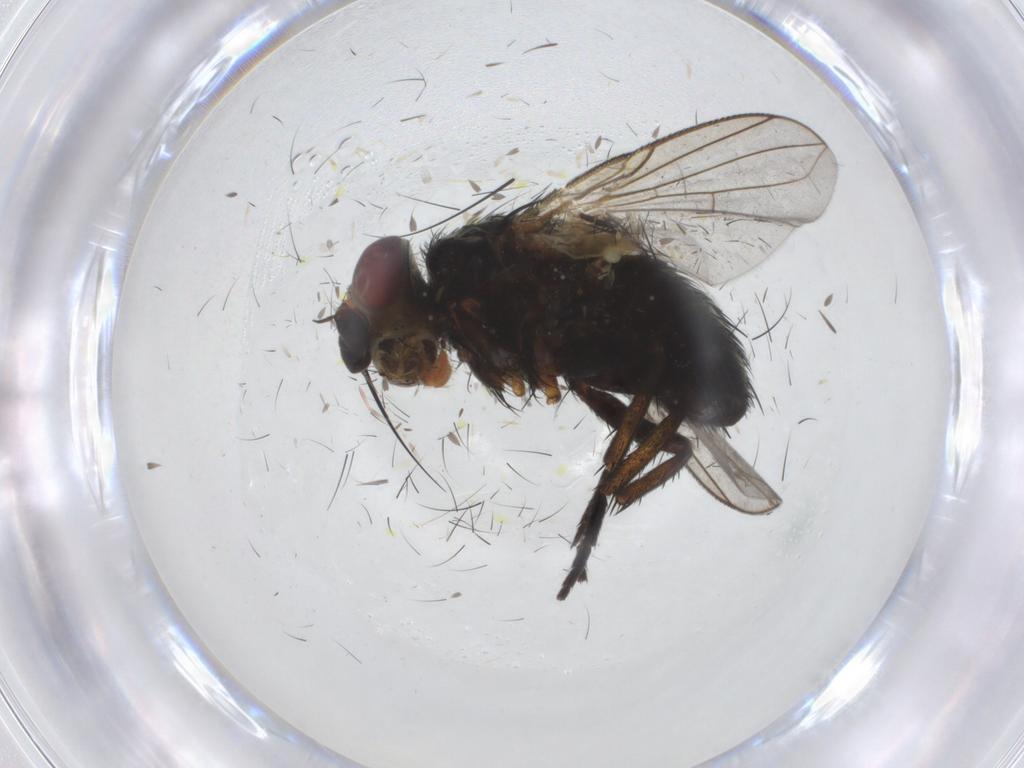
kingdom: Animalia
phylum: Arthropoda
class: Insecta
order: Diptera
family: Tachinidae
